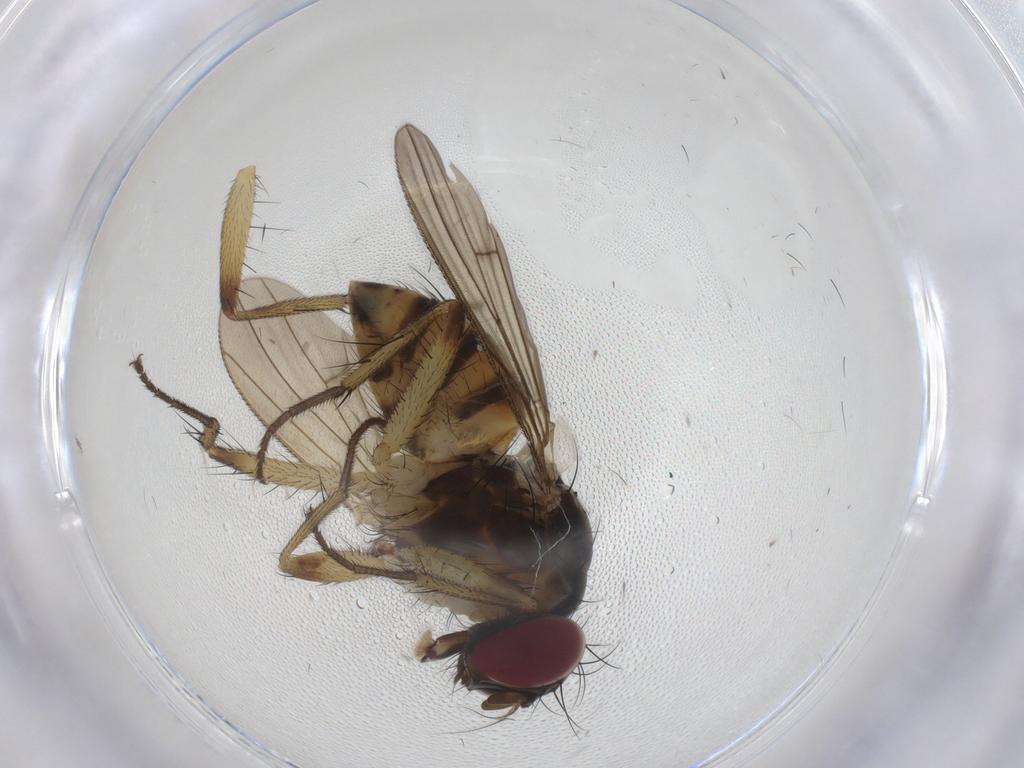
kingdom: Animalia
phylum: Arthropoda
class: Insecta
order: Diptera
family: Muscidae
